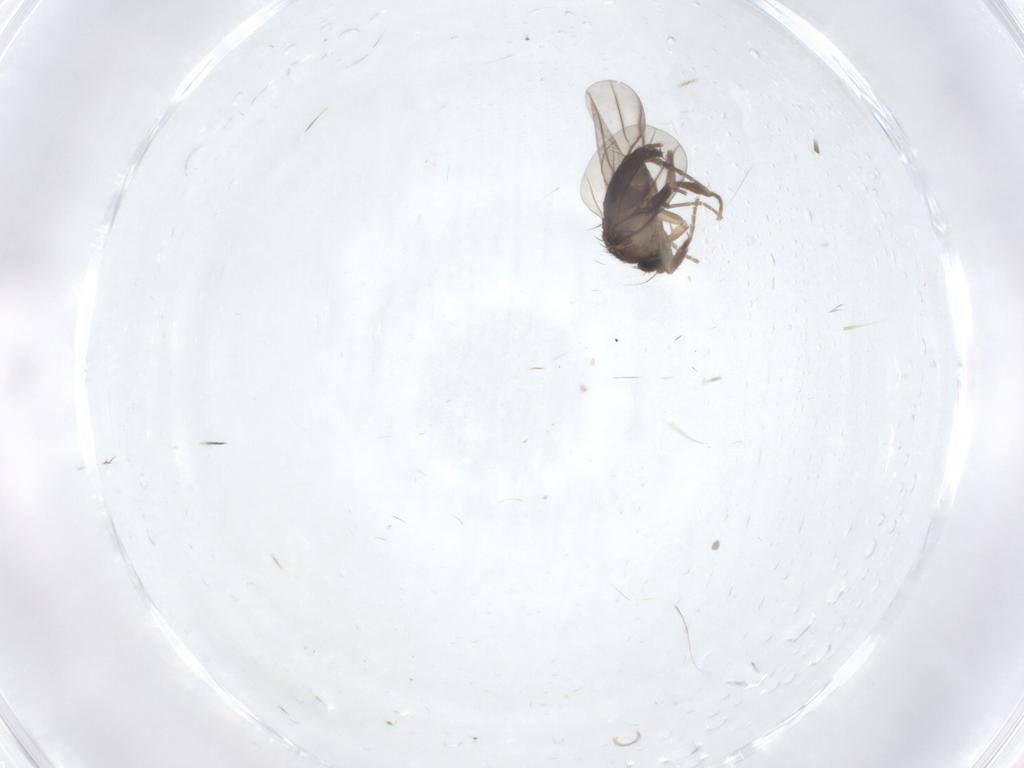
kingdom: Animalia
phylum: Arthropoda
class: Insecta
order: Diptera
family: Phoridae
